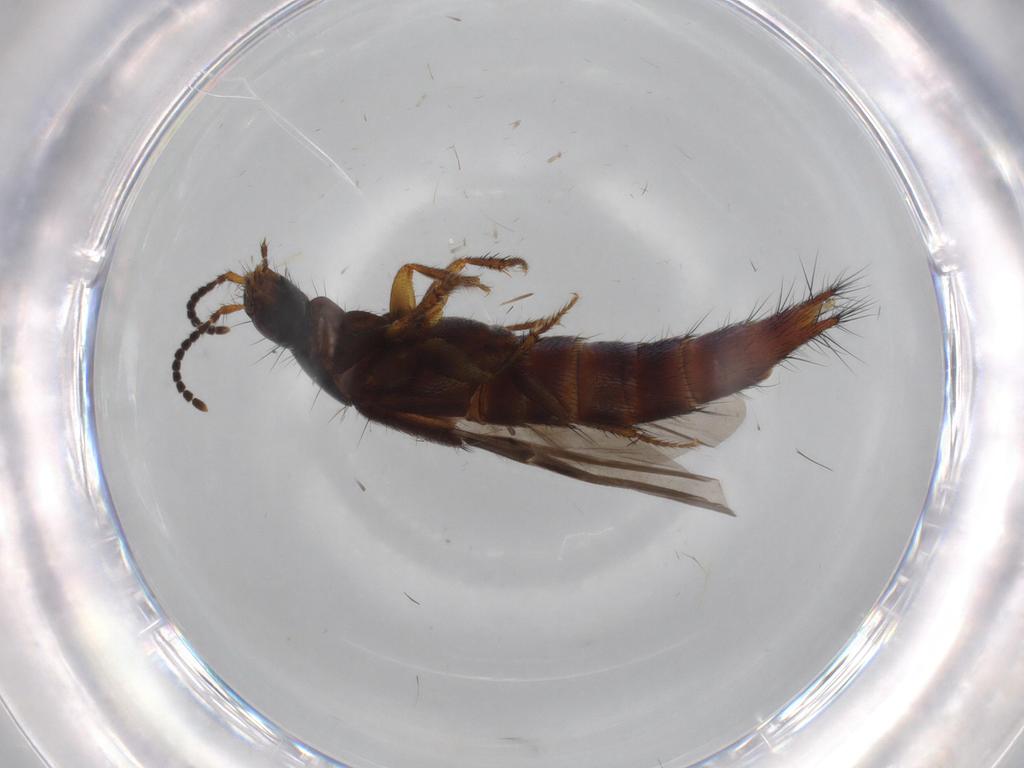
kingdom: Animalia
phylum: Arthropoda
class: Insecta
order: Coleoptera
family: Staphylinidae
